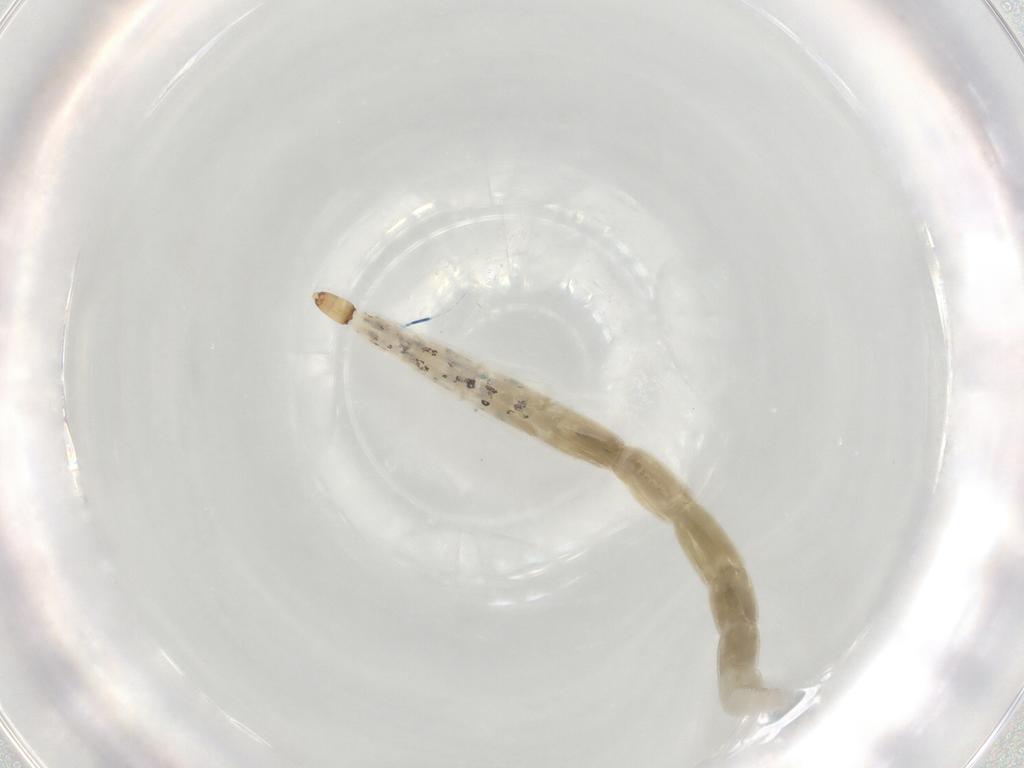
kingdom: Animalia
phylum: Arthropoda
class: Insecta
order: Diptera
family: Ceratopogonidae
